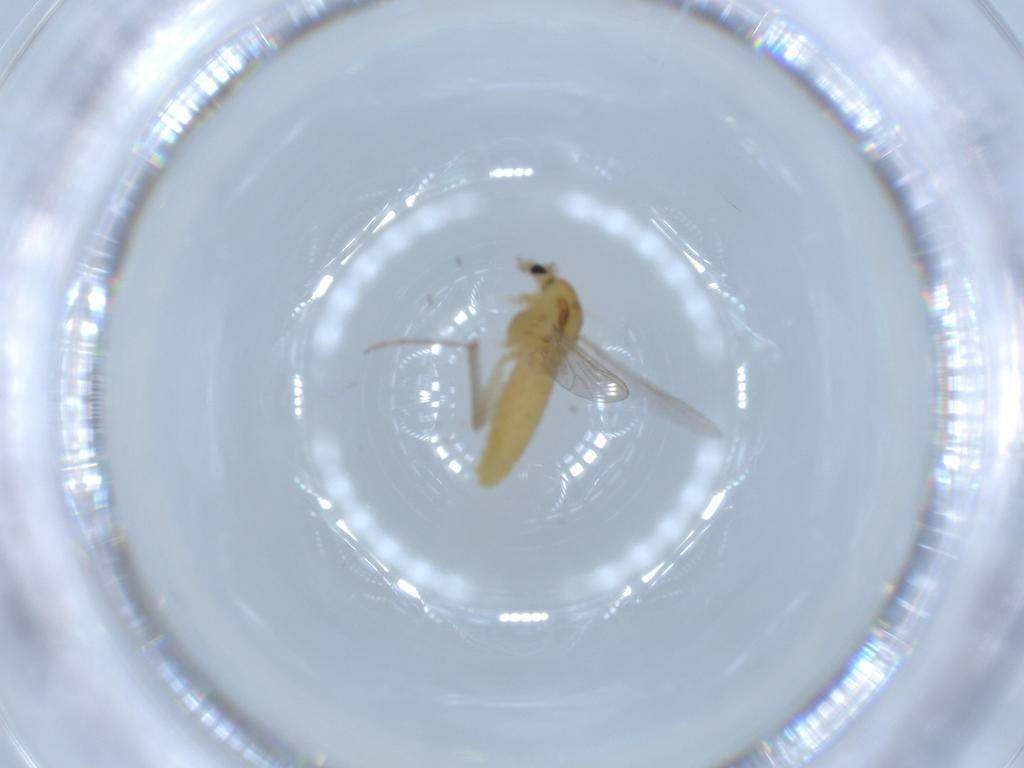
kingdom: Animalia
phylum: Arthropoda
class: Insecta
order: Diptera
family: Chironomidae
